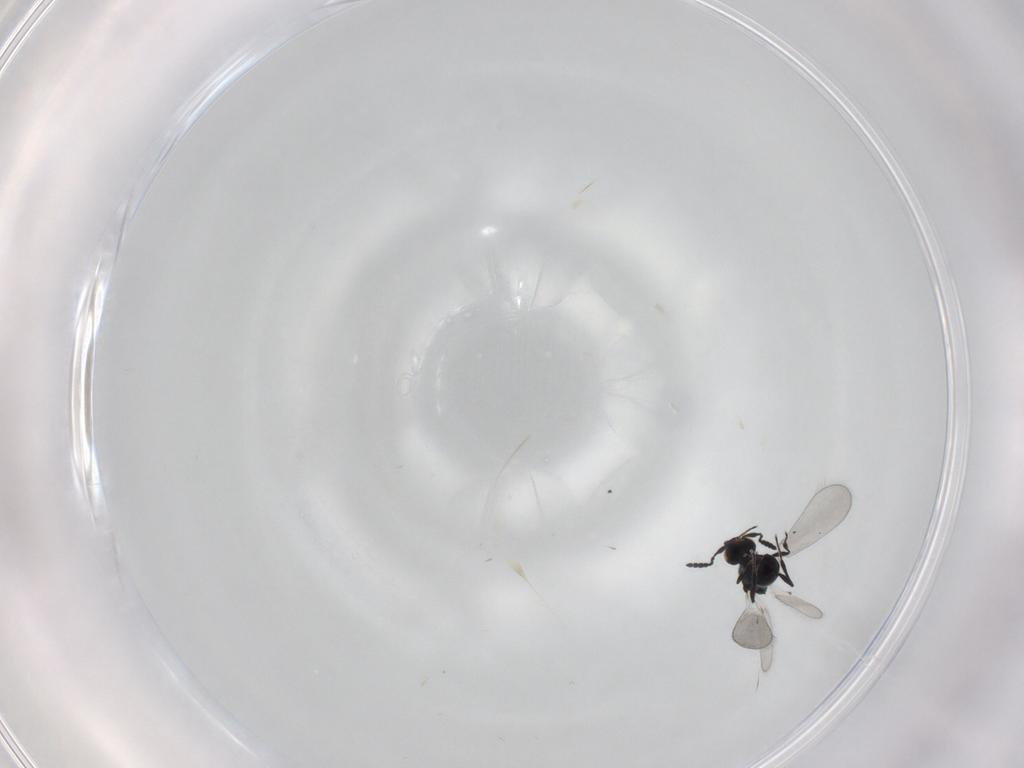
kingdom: Animalia
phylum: Arthropoda
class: Insecta
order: Hymenoptera
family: Platygastridae
